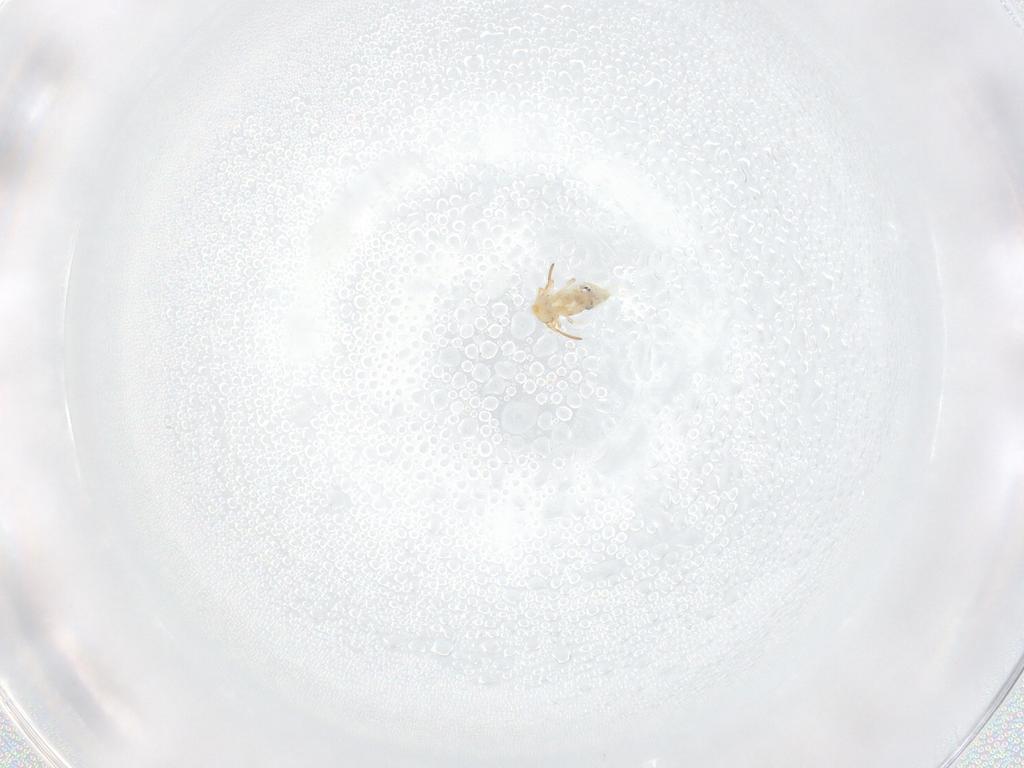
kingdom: Animalia
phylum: Arthropoda
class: Collembola
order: Symphypleona
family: Bourletiellidae
